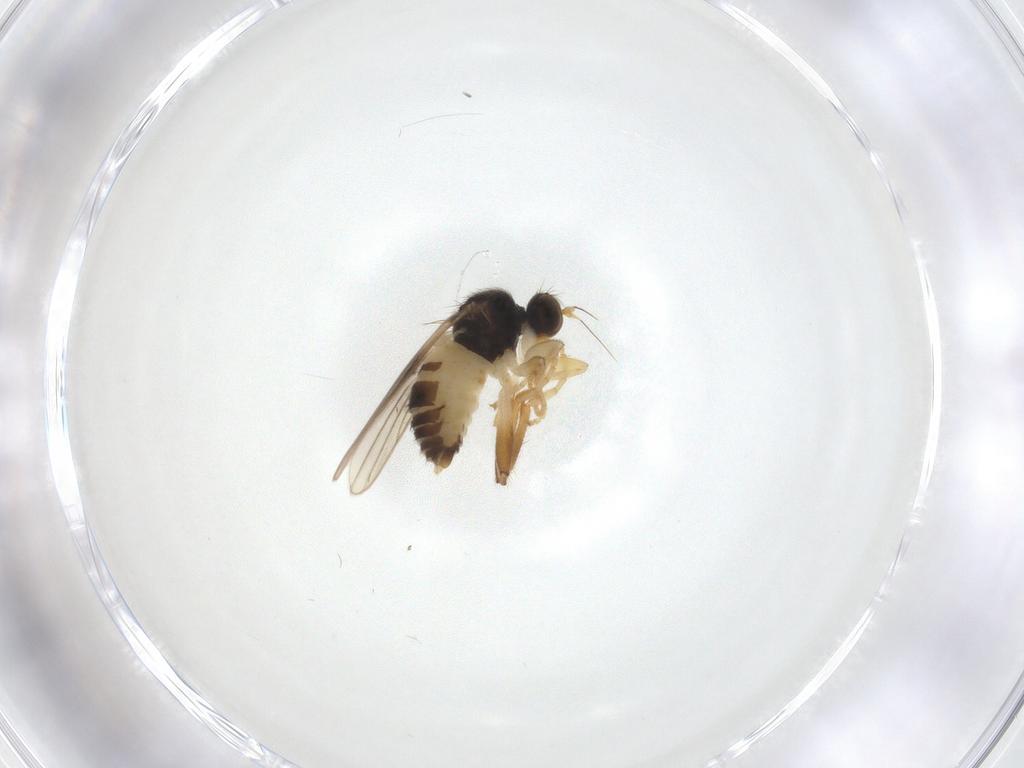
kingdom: Animalia
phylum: Arthropoda
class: Insecta
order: Diptera
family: Hybotidae
